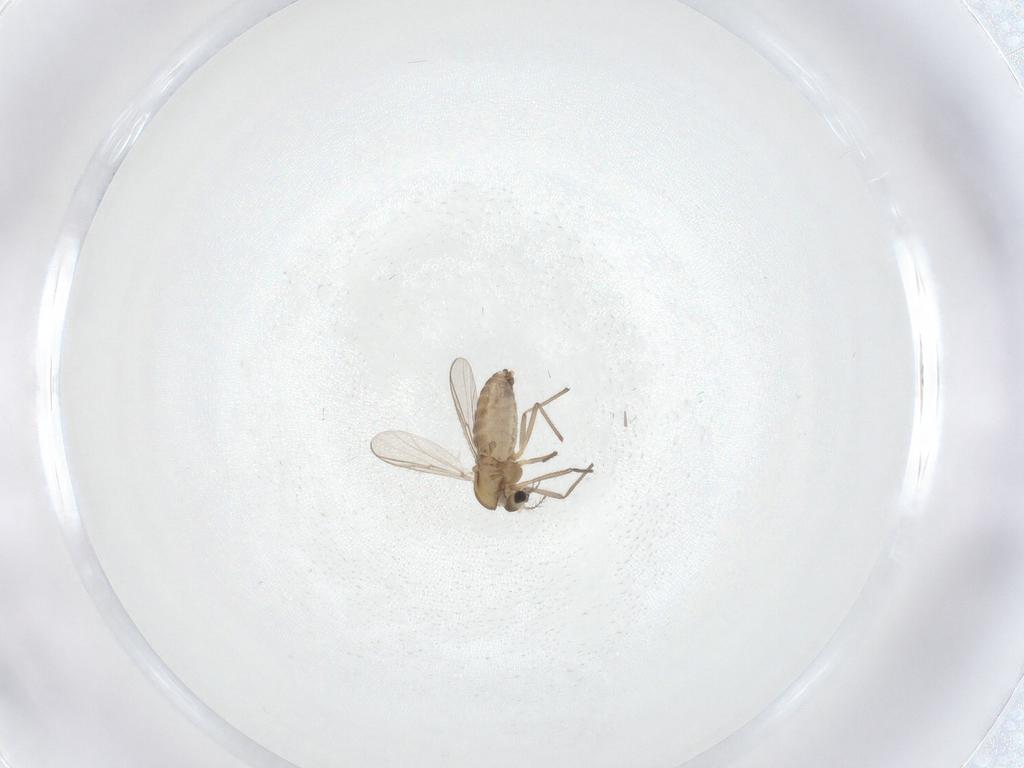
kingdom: Animalia
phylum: Arthropoda
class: Insecta
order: Diptera
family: Chironomidae
